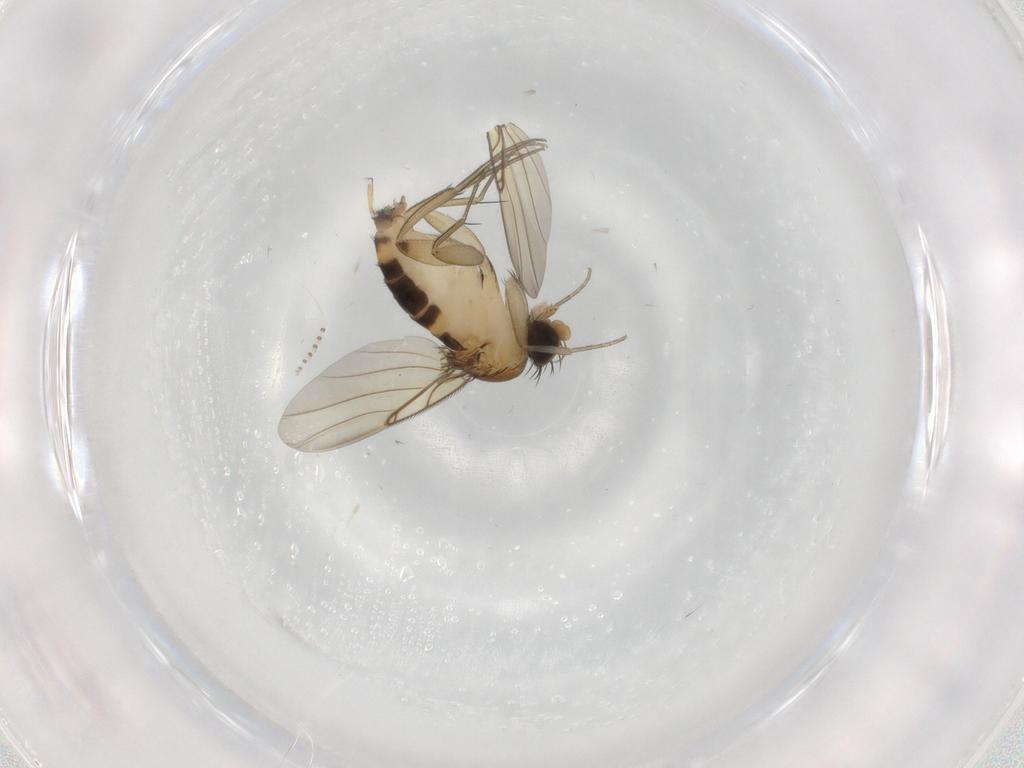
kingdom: Animalia
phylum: Arthropoda
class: Insecta
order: Diptera
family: Phoridae
